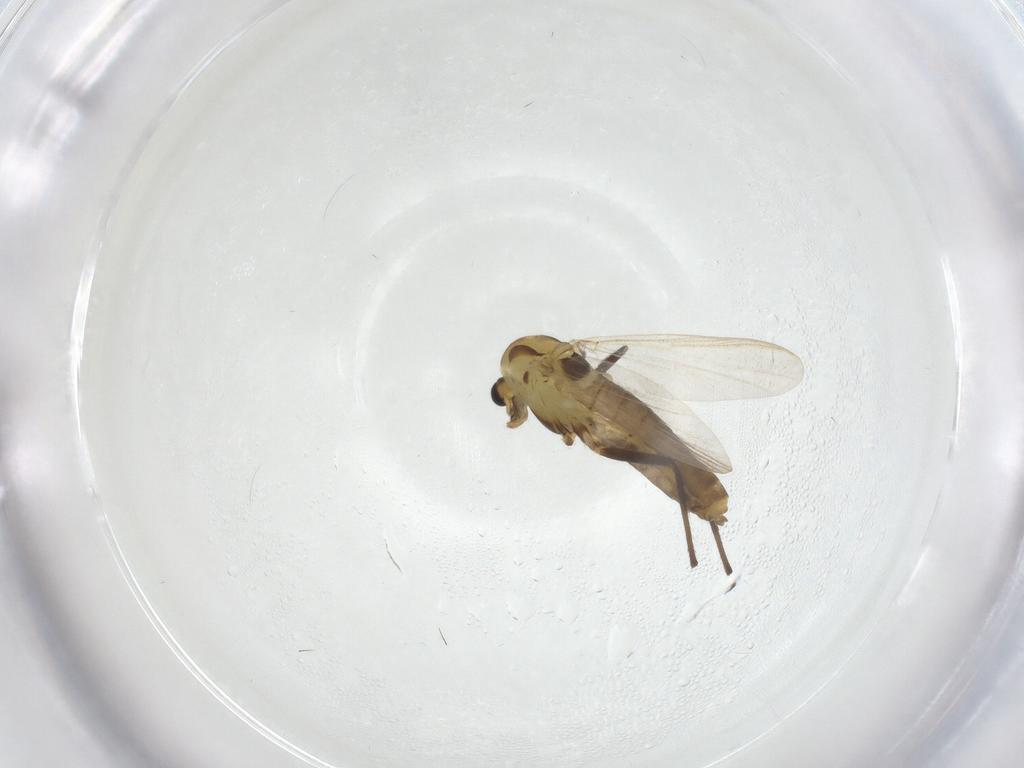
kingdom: Animalia
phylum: Arthropoda
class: Insecta
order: Diptera
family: Chironomidae
